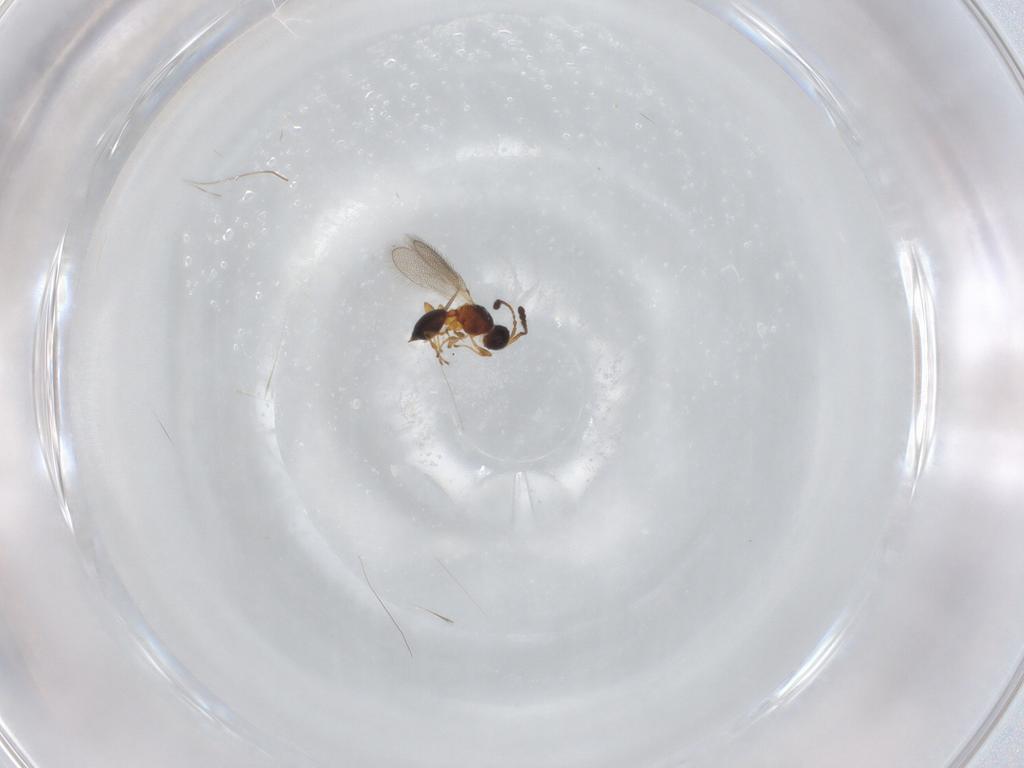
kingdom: Animalia
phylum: Arthropoda
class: Insecta
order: Hymenoptera
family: Diapriidae
